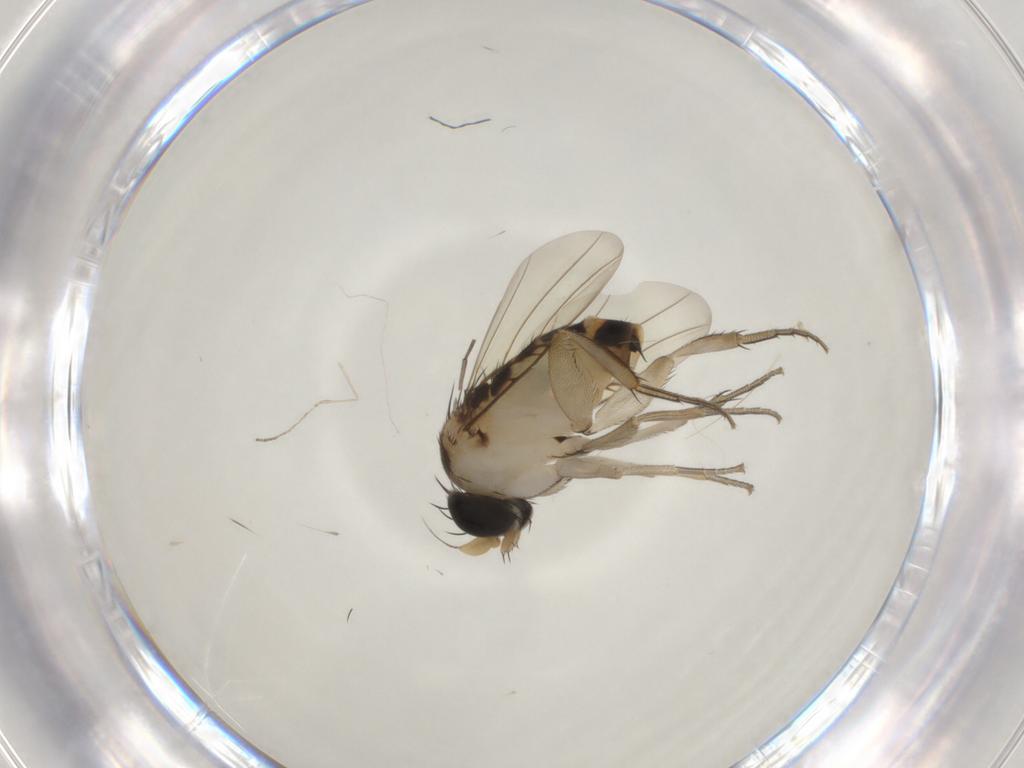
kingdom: Animalia
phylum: Arthropoda
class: Insecta
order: Diptera
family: Phoridae
